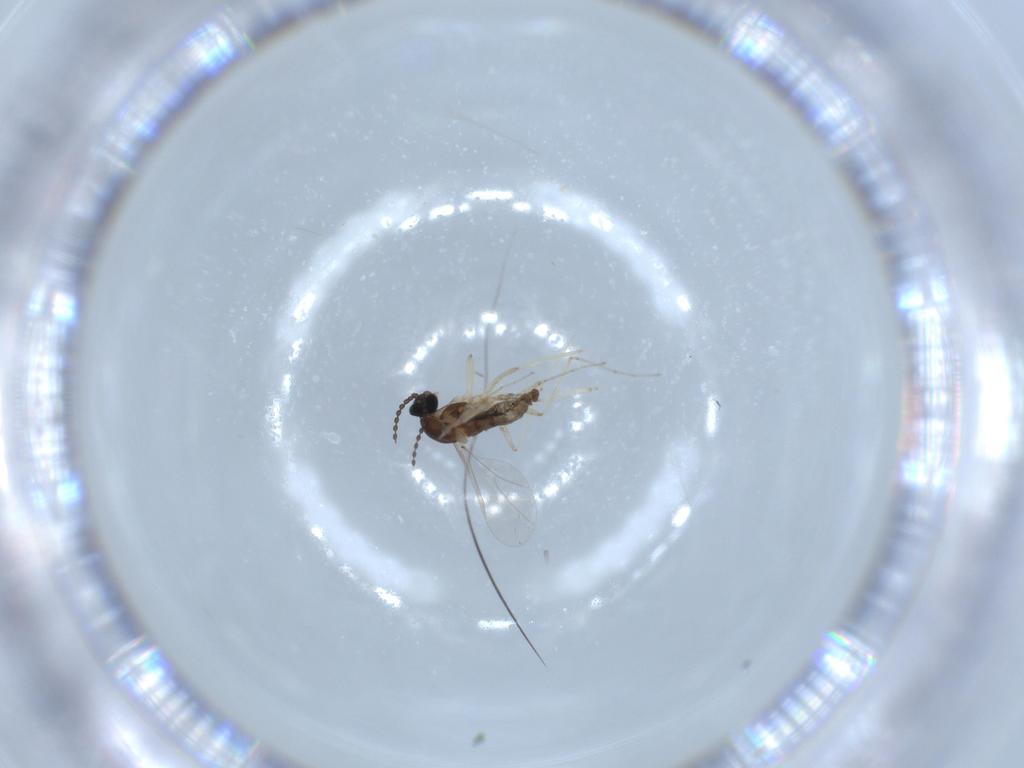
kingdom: Animalia
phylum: Arthropoda
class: Insecta
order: Diptera
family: Cecidomyiidae
